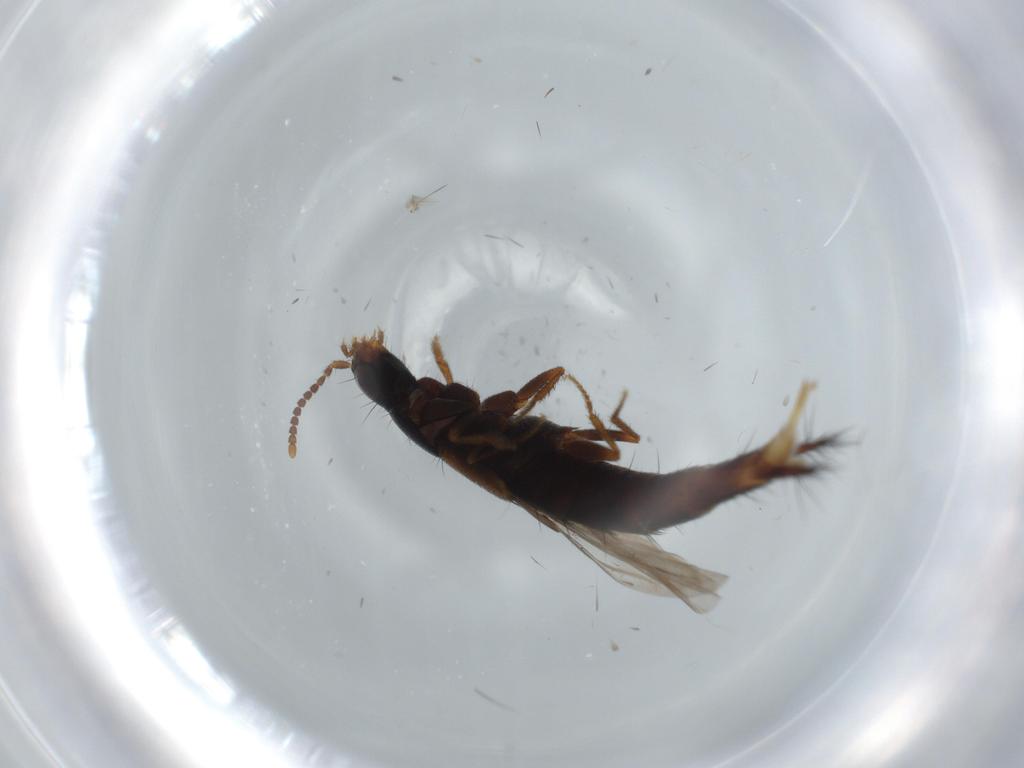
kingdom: Animalia
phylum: Arthropoda
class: Insecta
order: Coleoptera
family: Staphylinidae
